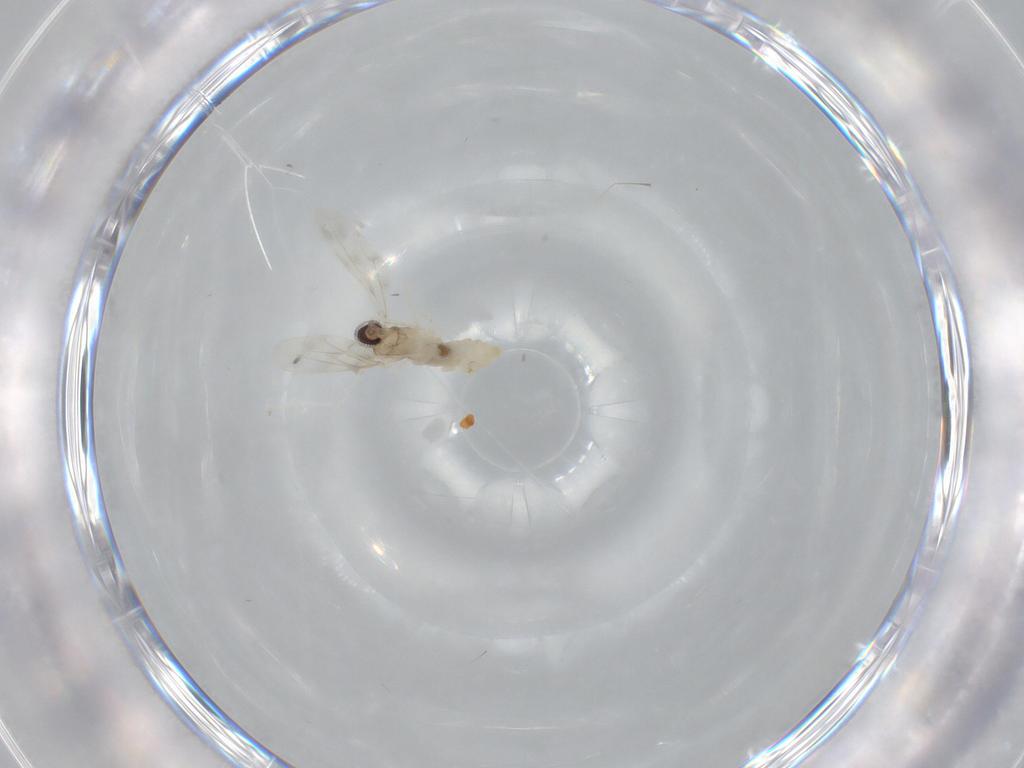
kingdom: Animalia
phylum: Arthropoda
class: Insecta
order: Diptera
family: Cecidomyiidae
